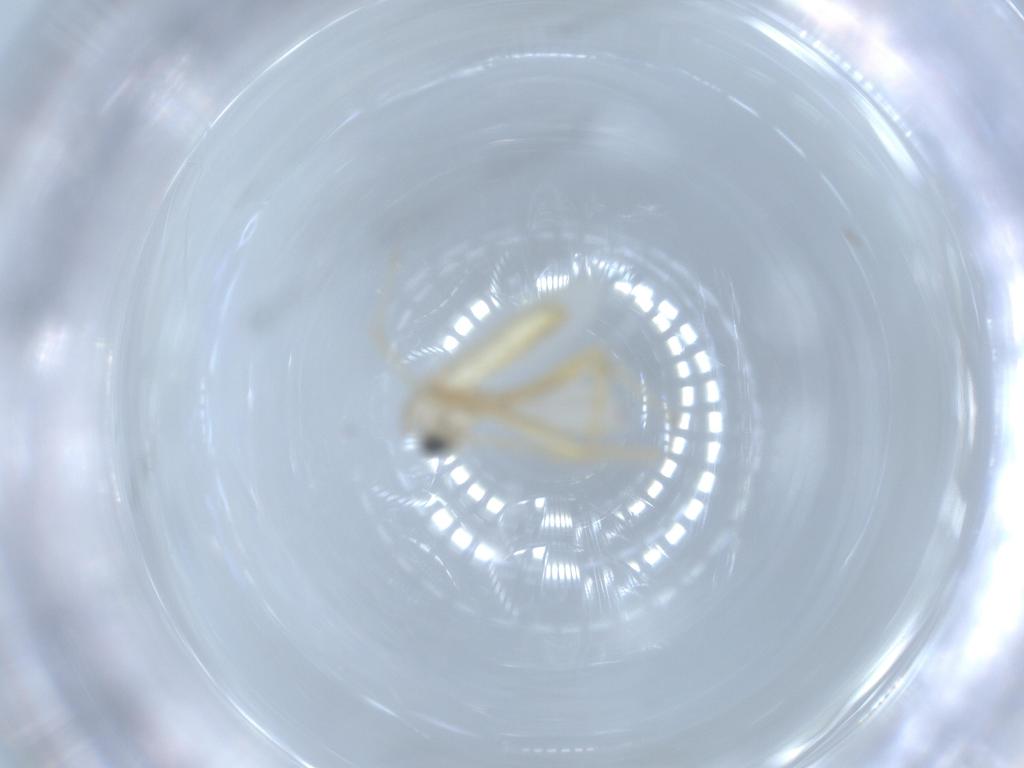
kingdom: Animalia
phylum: Arthropoda
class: Insecta
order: Diptera
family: Chironomidae
